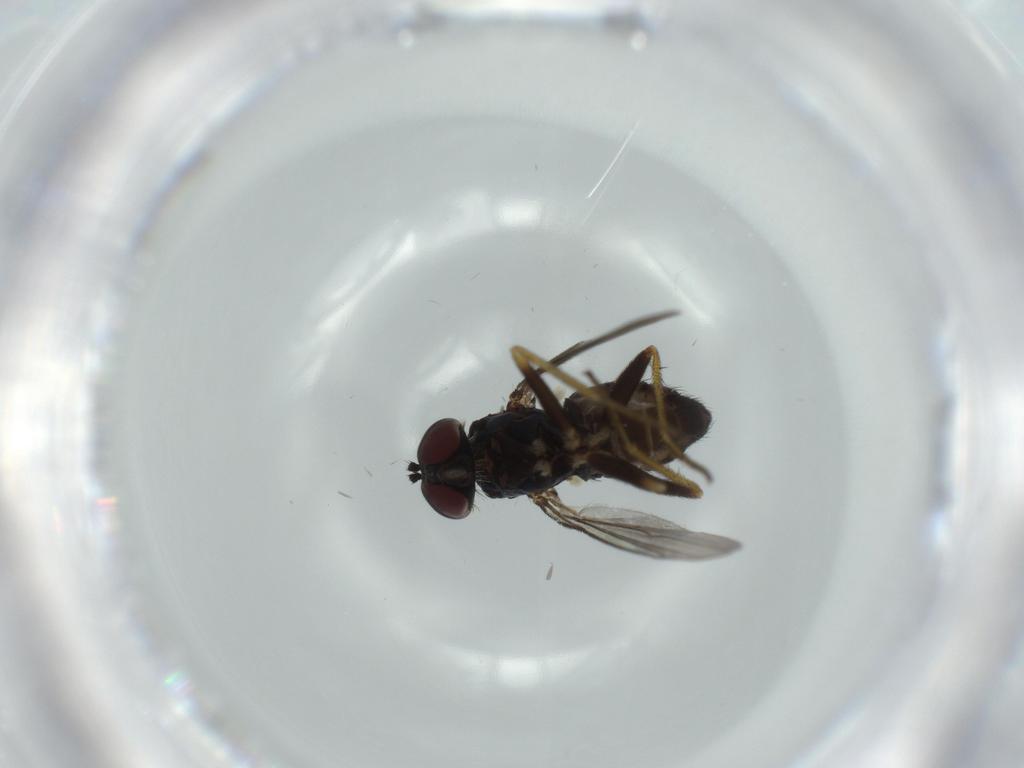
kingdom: Animalia
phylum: Arthropoda
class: Insecta
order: Diptera
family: Dolichopodidae
